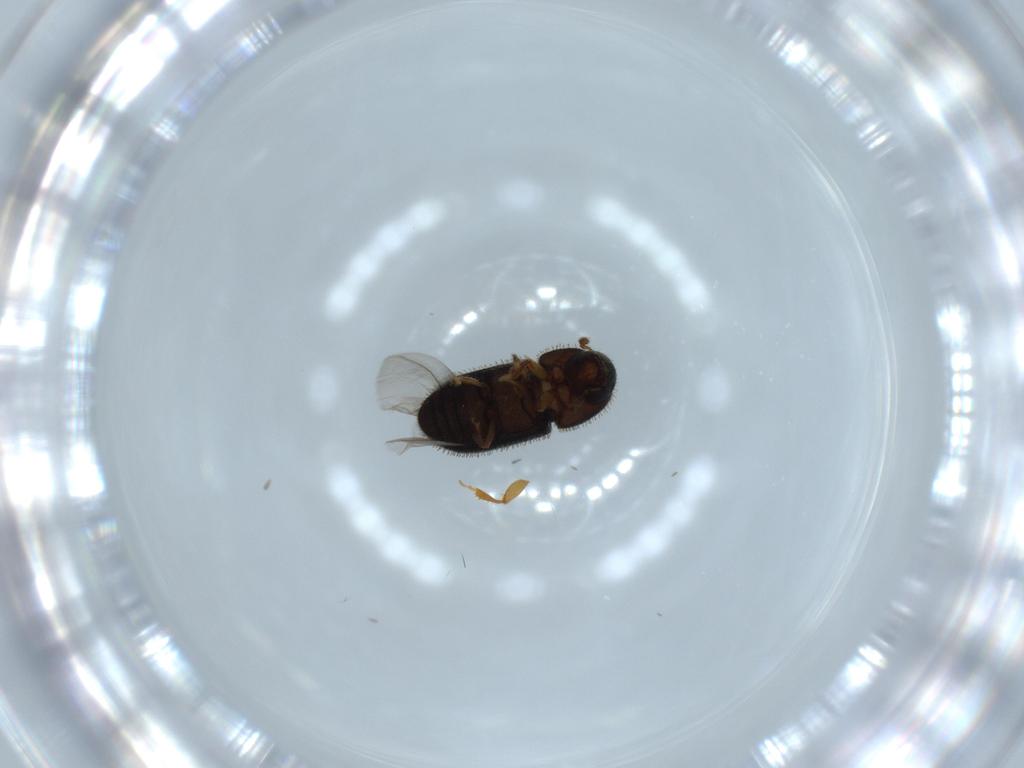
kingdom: Animalia
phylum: Arthropoda
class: Insecta
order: Coleoptera
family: Curculionidae
